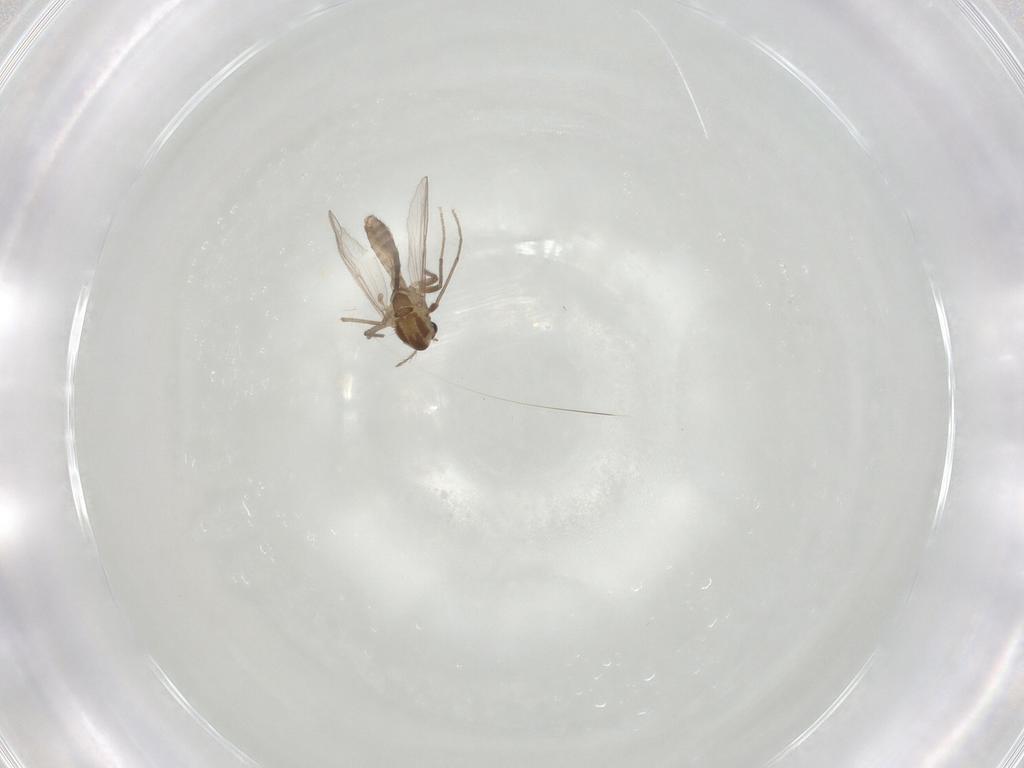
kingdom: Animalia
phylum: Arthropoda
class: Insecta
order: Diptera
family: Chironomidae
